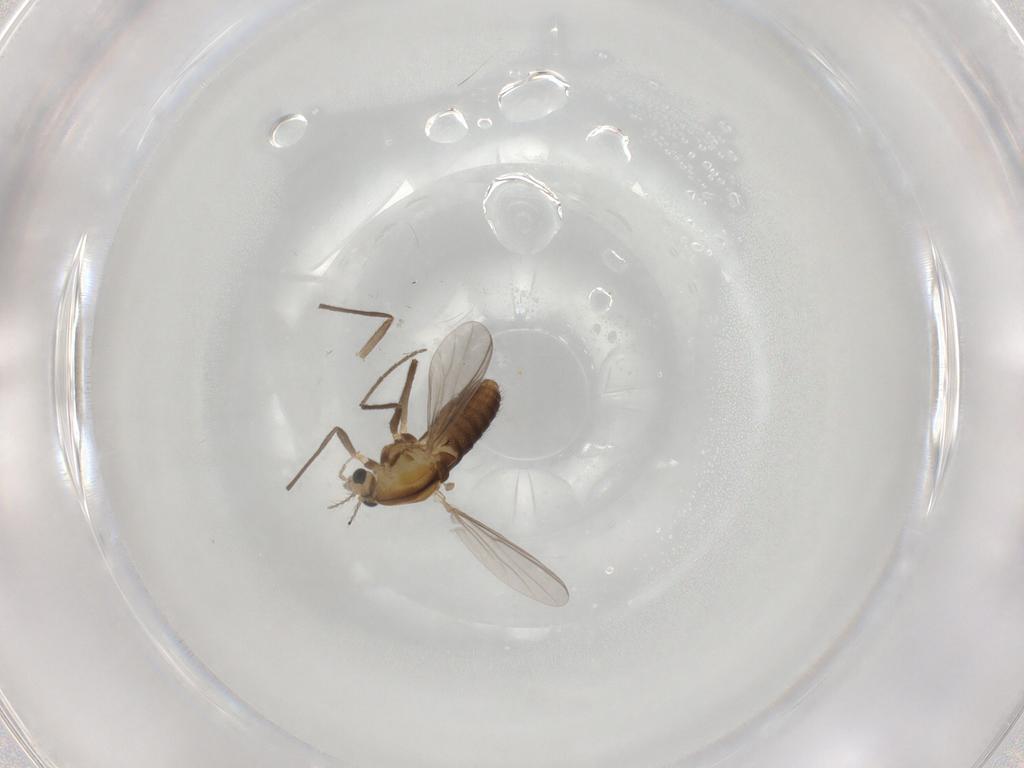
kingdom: Animalia
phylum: Arthropoda
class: Insecta
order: Diptera
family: Chironomidae
